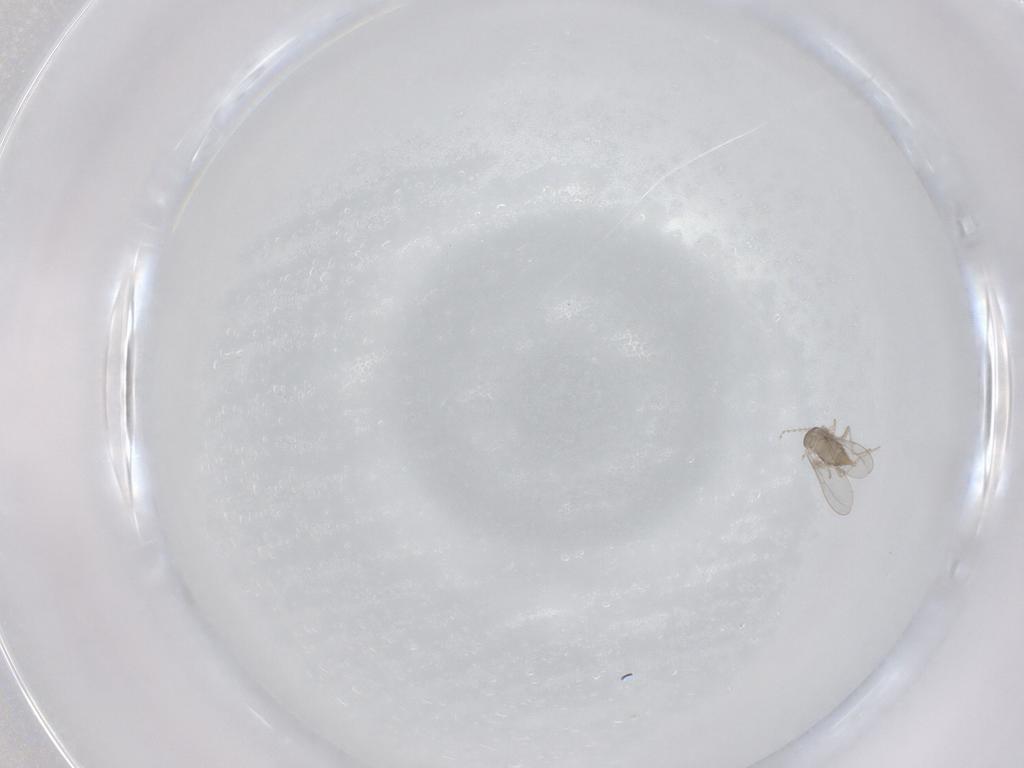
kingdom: Animalia
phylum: Arthropoda
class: Insecta
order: Diptera
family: Cecidomyiidae
